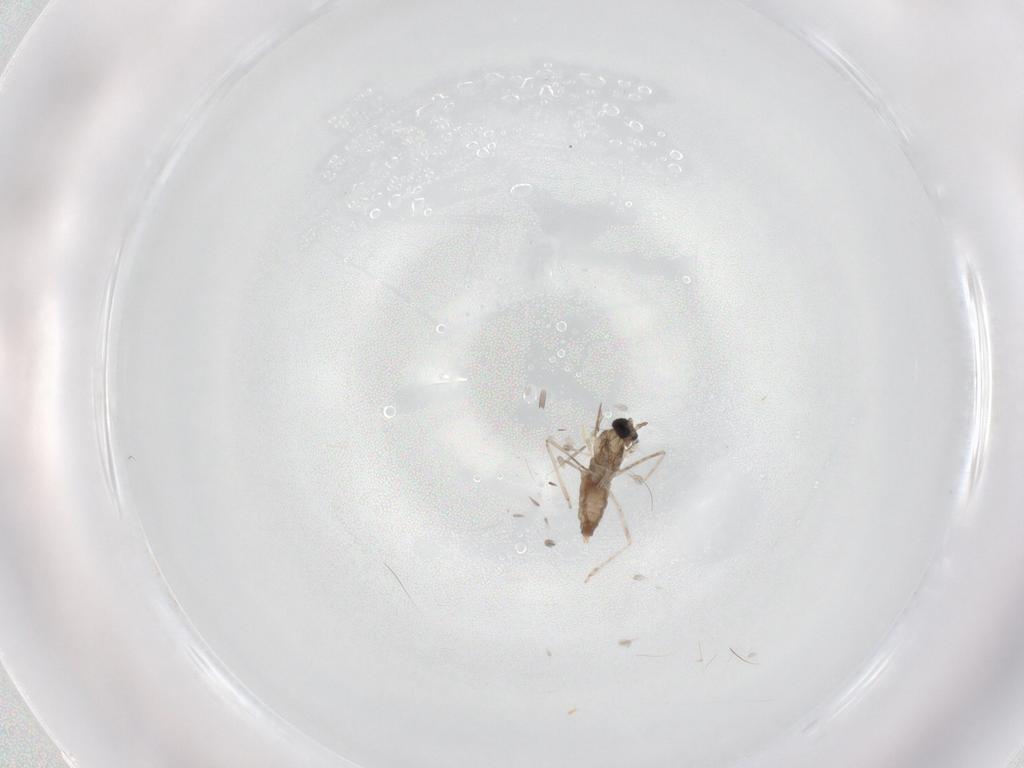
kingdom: Animalia
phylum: Arthropoda
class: Insecta
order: Diptera
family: Cecidomyiidae
